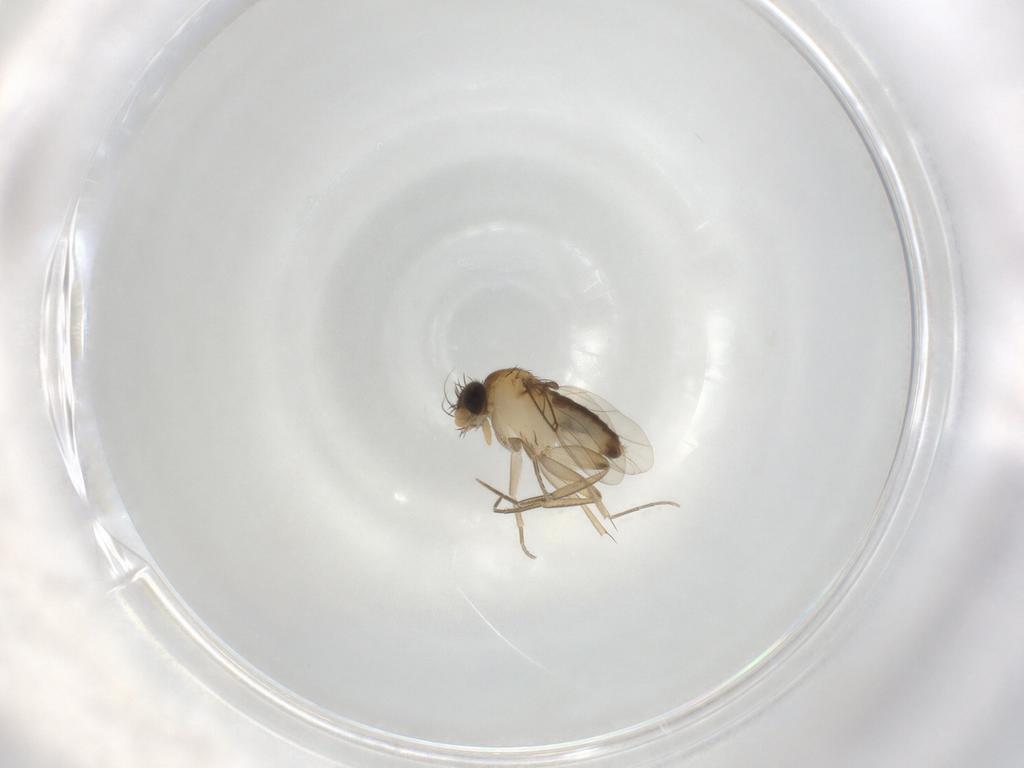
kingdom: Animalia
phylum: Arthropoda
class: Insecta
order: Diptera
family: Phoridae
